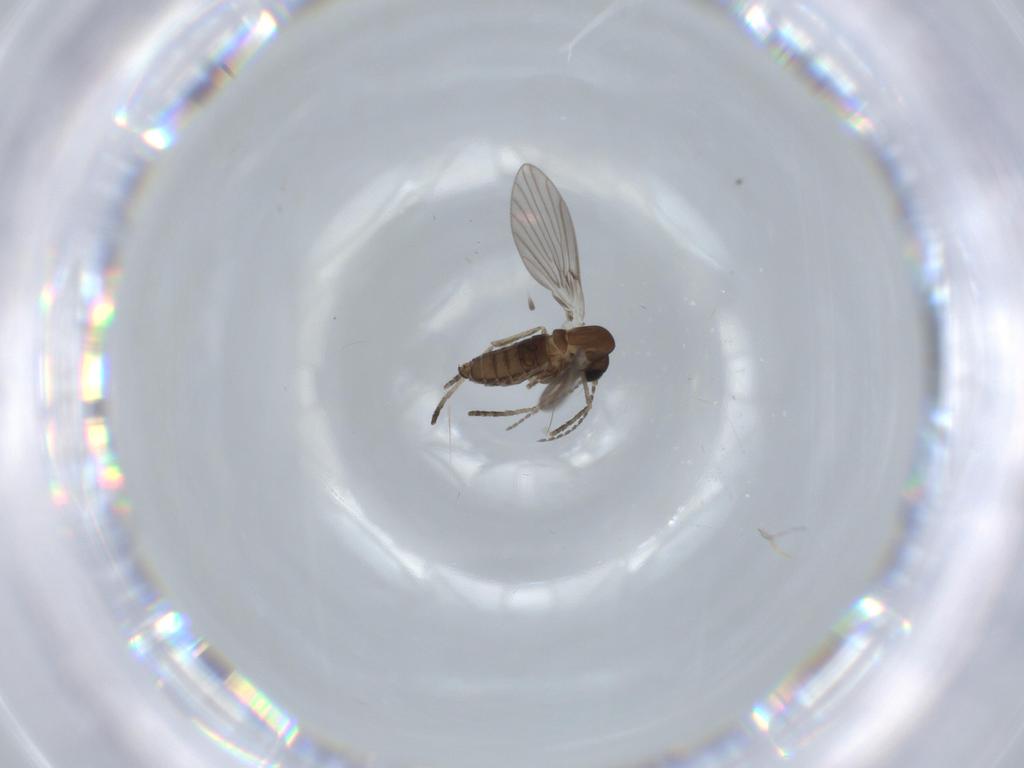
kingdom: Animalia
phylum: Arthropoda
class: Insecta
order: Diptera
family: Psychodidae
